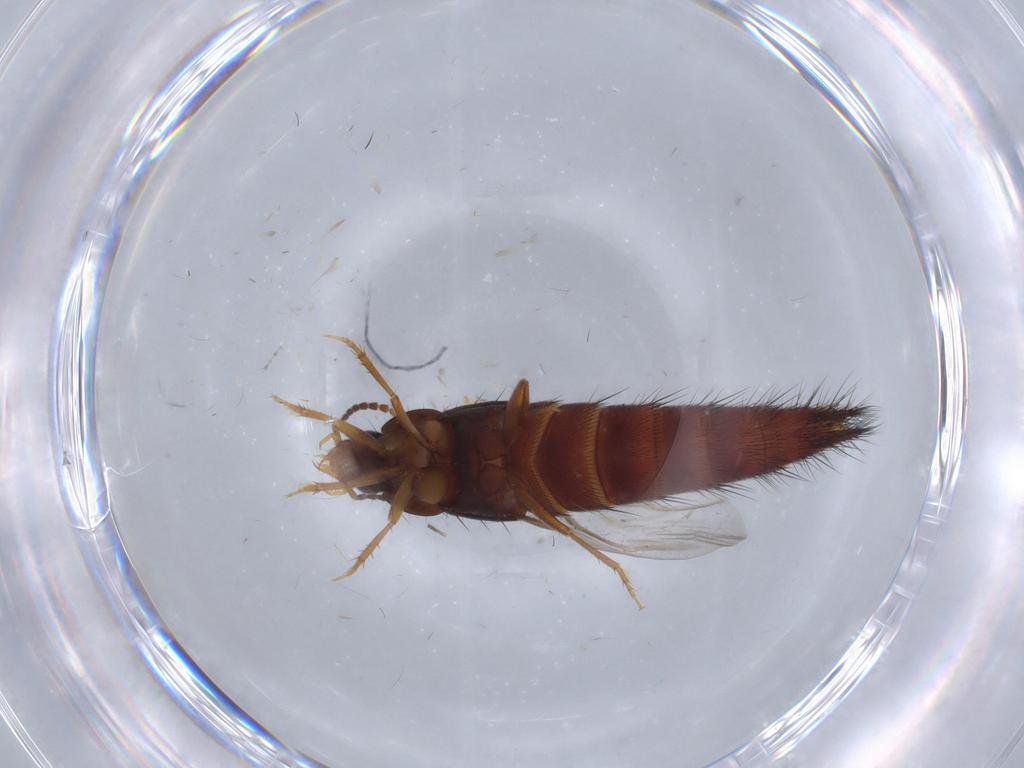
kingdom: Animalia
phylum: Arthropoda
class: Insecta
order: Coleoptera
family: Staphylinidae
